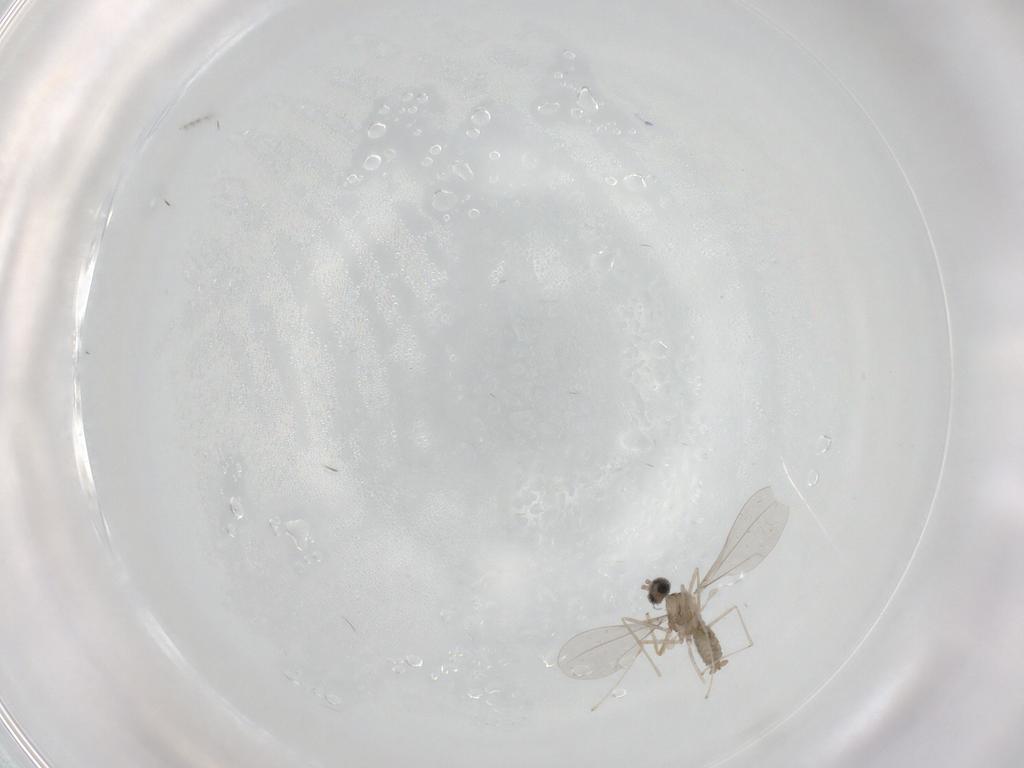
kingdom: Animalia
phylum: Arthropoda
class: Insecta
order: Diptera
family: Cecidomyiidae
